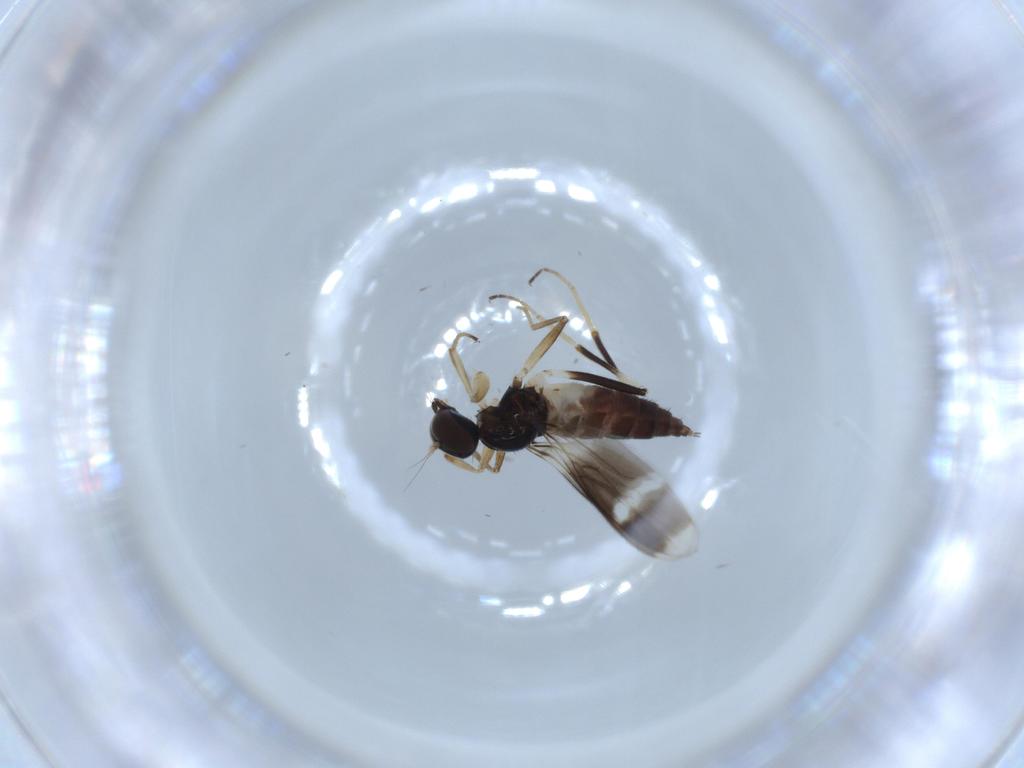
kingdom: Animalia
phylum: Arthropoda
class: Insecta
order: Diptera
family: Hybotidae
